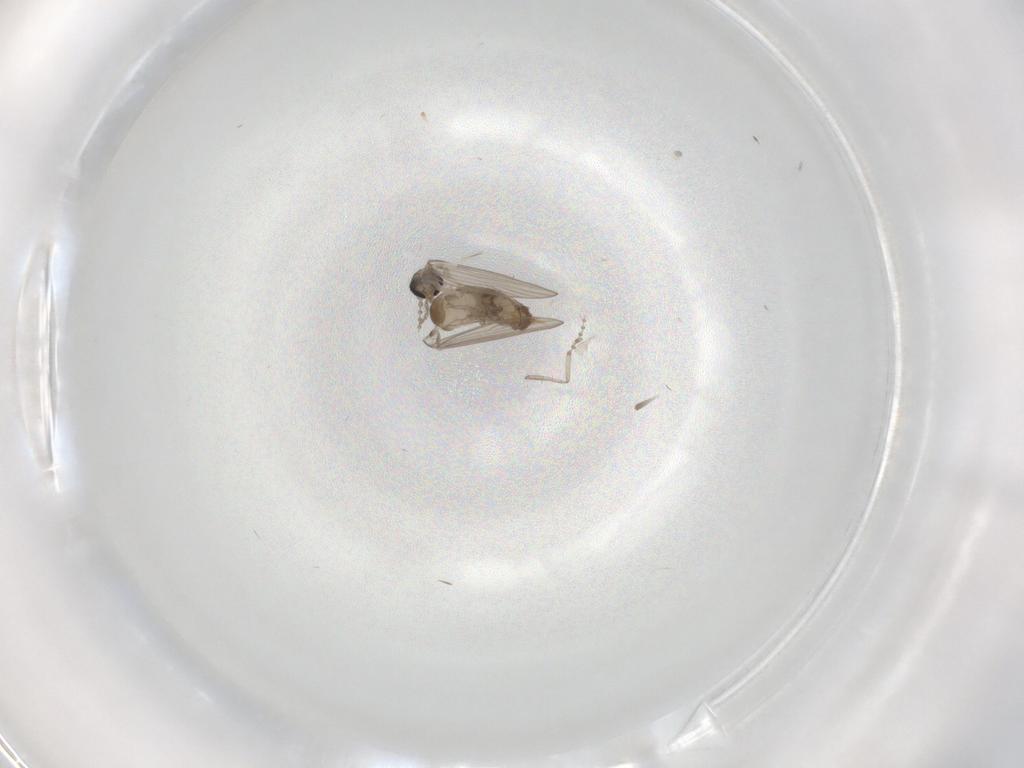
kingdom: Animalia
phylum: Arthropoda
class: Insecta
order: Diptera
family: Psychodidae
